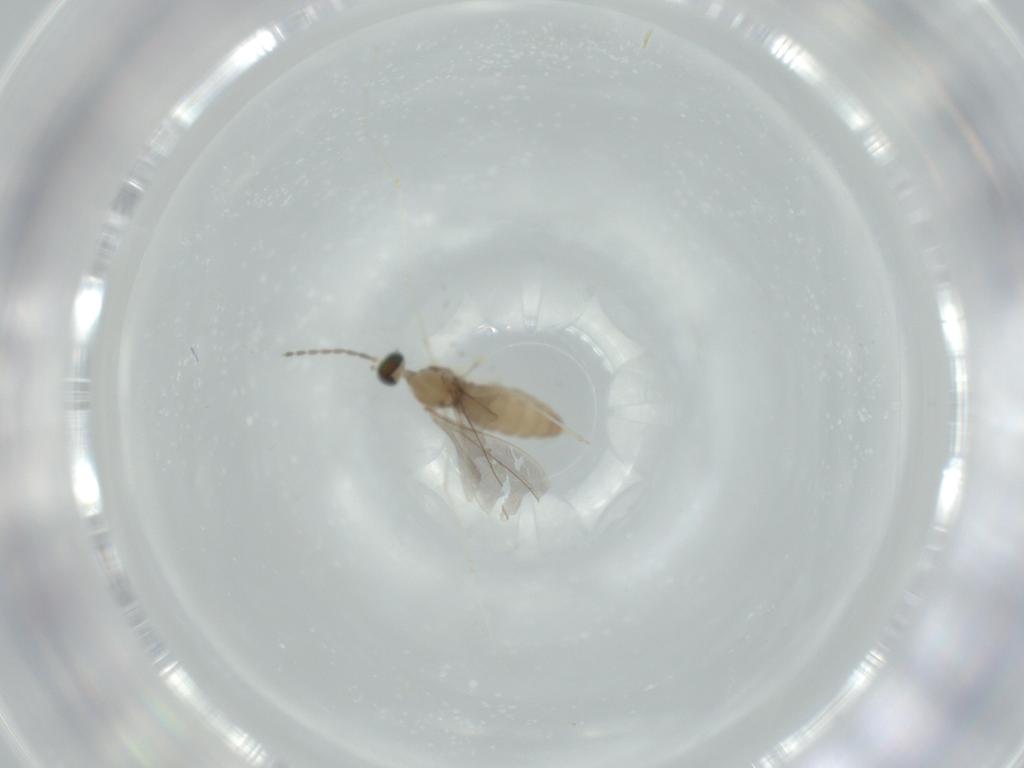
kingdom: Animalia
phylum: Arthropoda
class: Insecta
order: Diptera
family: Cecidomyiidae
